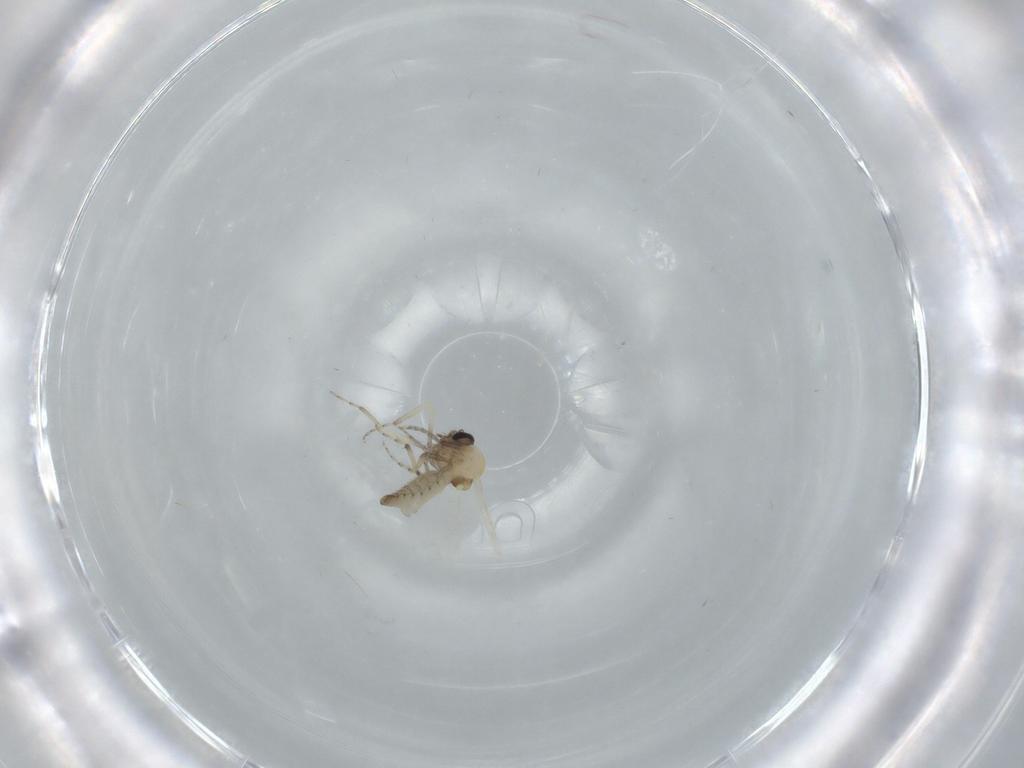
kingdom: Animalia
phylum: Arthropoda
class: Insecta
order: Diptera
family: Ceratopogonidae
